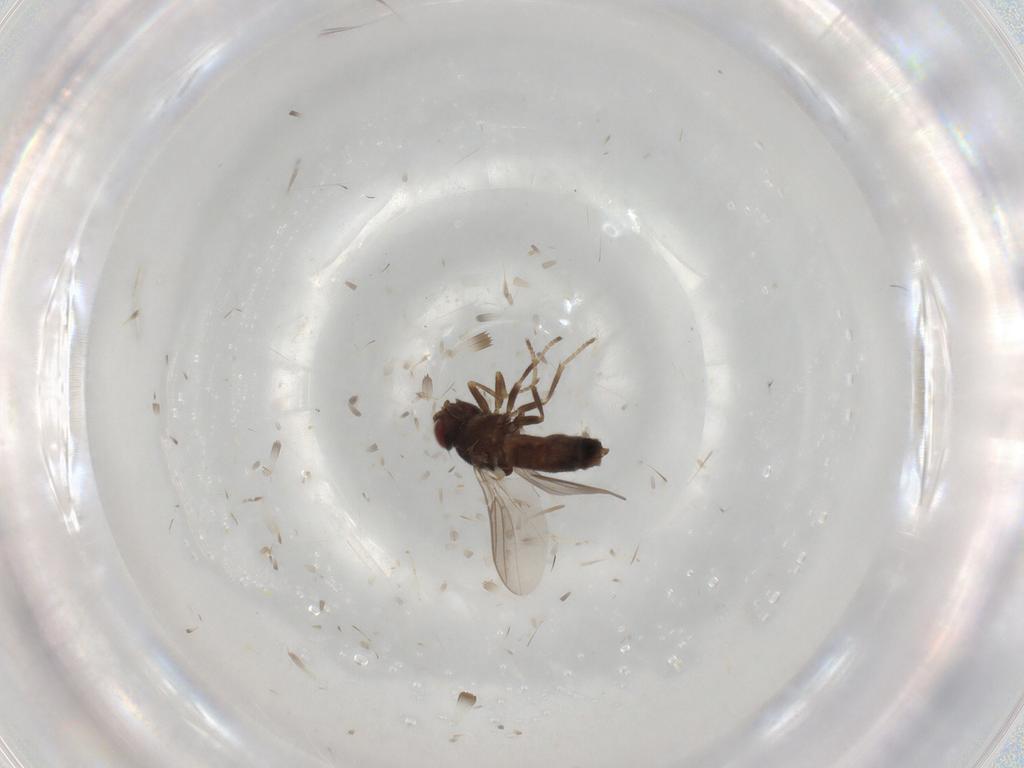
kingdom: Animalia
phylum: Arthropoda
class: Insecta
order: Diptera
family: Chloropidae
